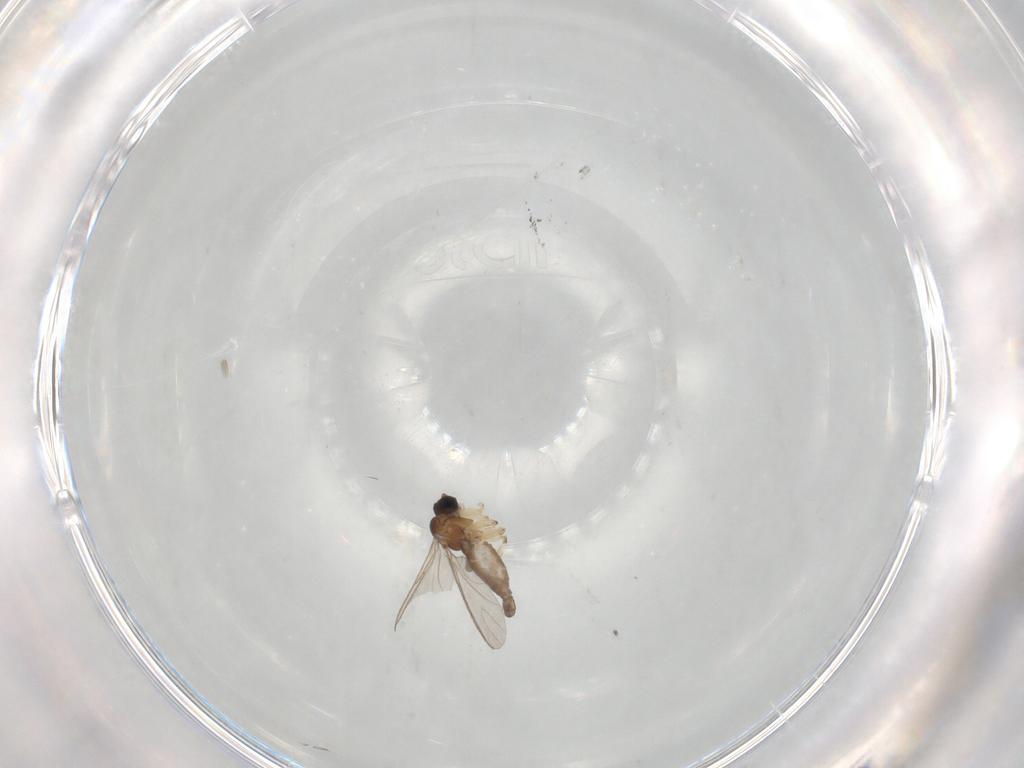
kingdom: Animalia
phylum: Arthropoda
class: Insecta
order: Diptera
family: Sciaridae
